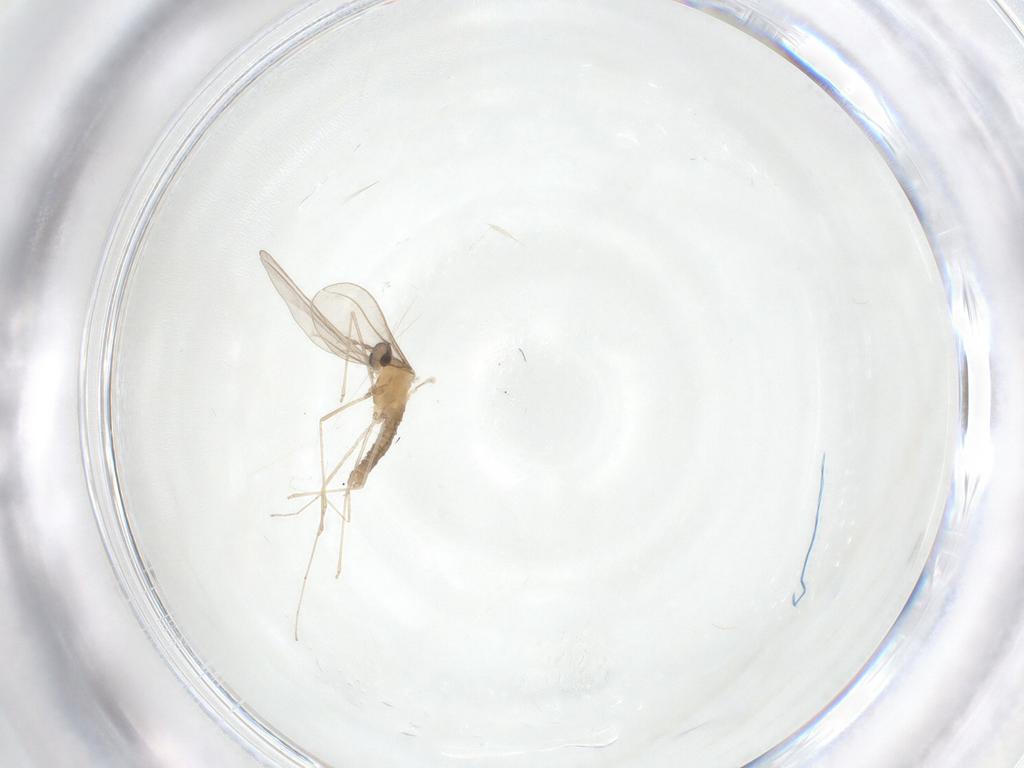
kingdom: Animalia
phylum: Arthropoda
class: Insecta
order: Diptera
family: Cecidomyiidae
